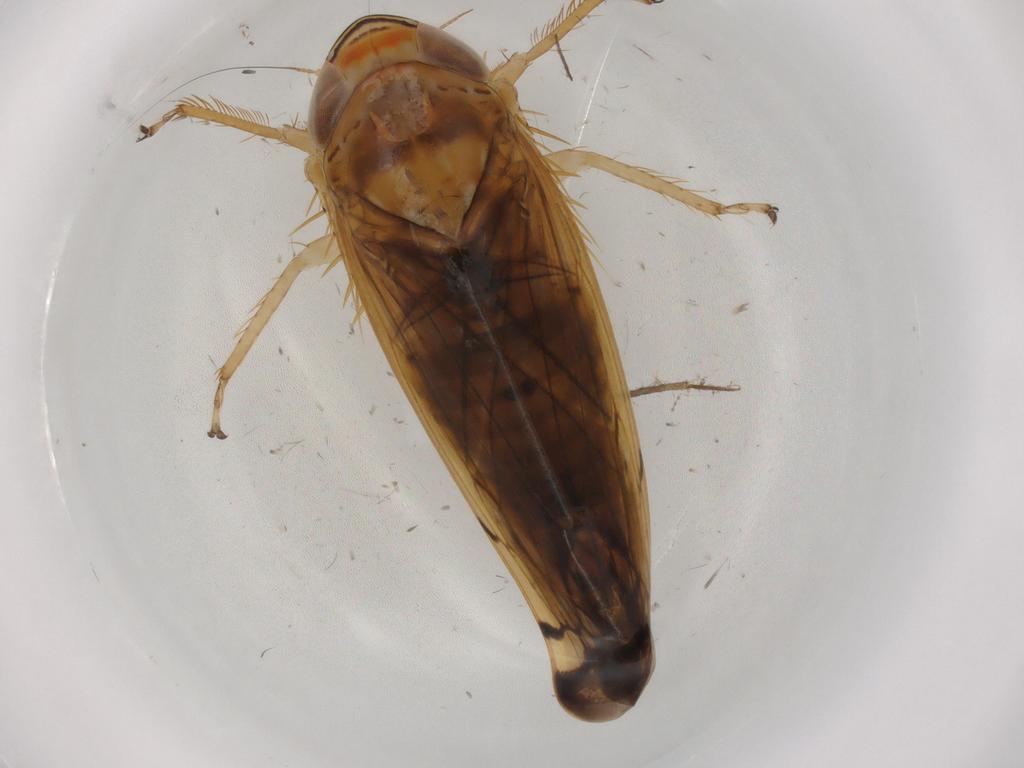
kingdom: Animalia
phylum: Arthropoda
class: Insecta
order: Hemiptera
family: Cicadellidae
